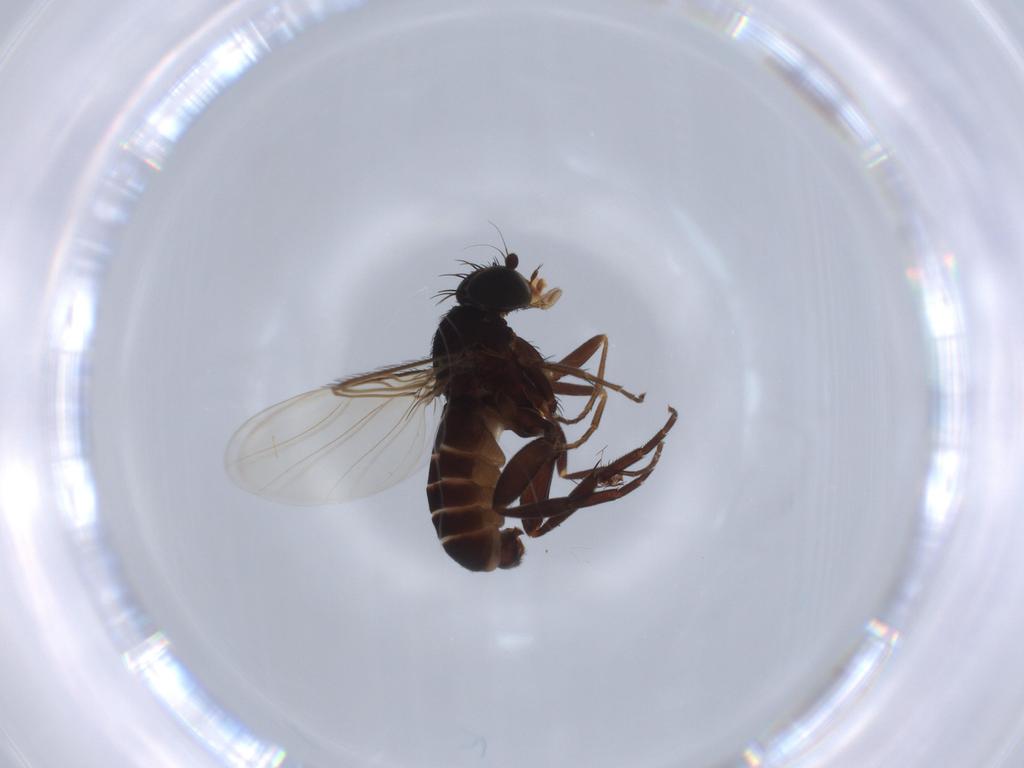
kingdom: Animalia
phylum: Arthropoda
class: Insecta
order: Diptera
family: Phoridae
